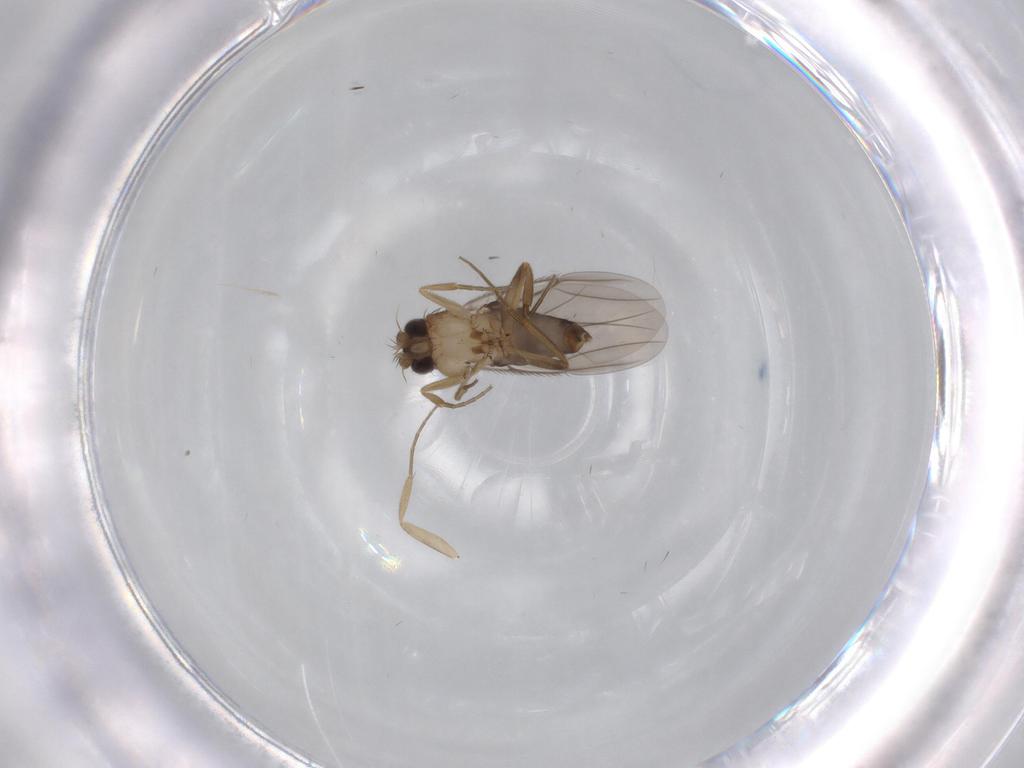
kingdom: Animalia
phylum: Arthropoda
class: Insecta
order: Diptera
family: Phoridae
